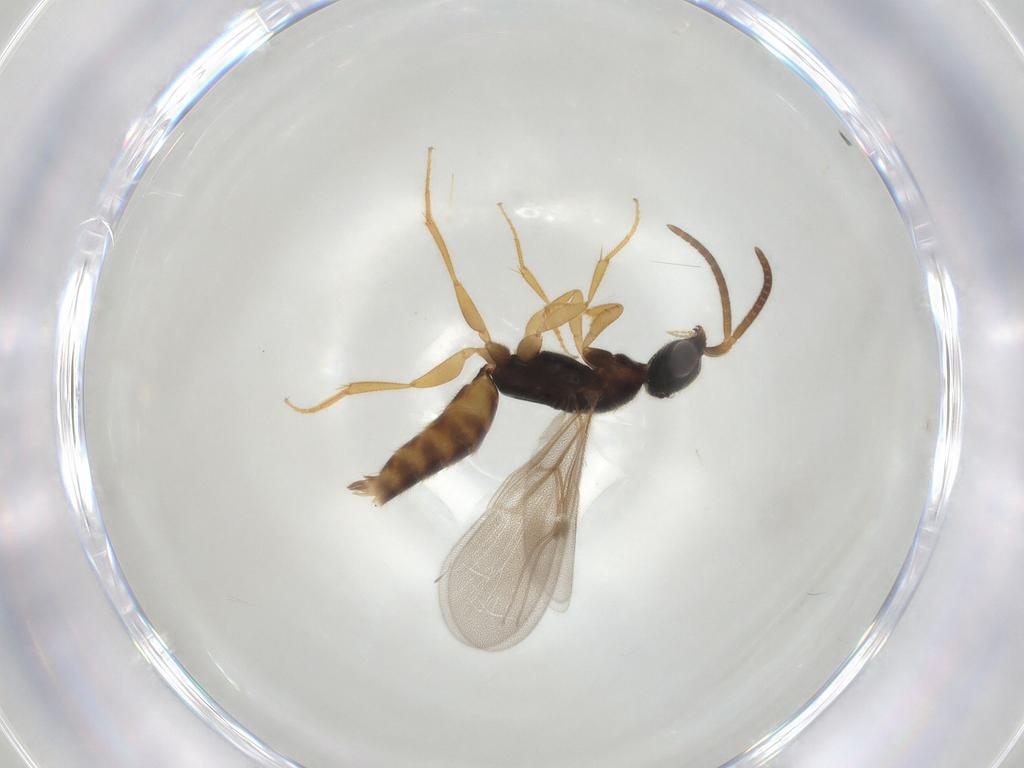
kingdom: Animalia
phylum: Arthropoda
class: Insecta
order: Hymenoptera
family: Bethylidae
